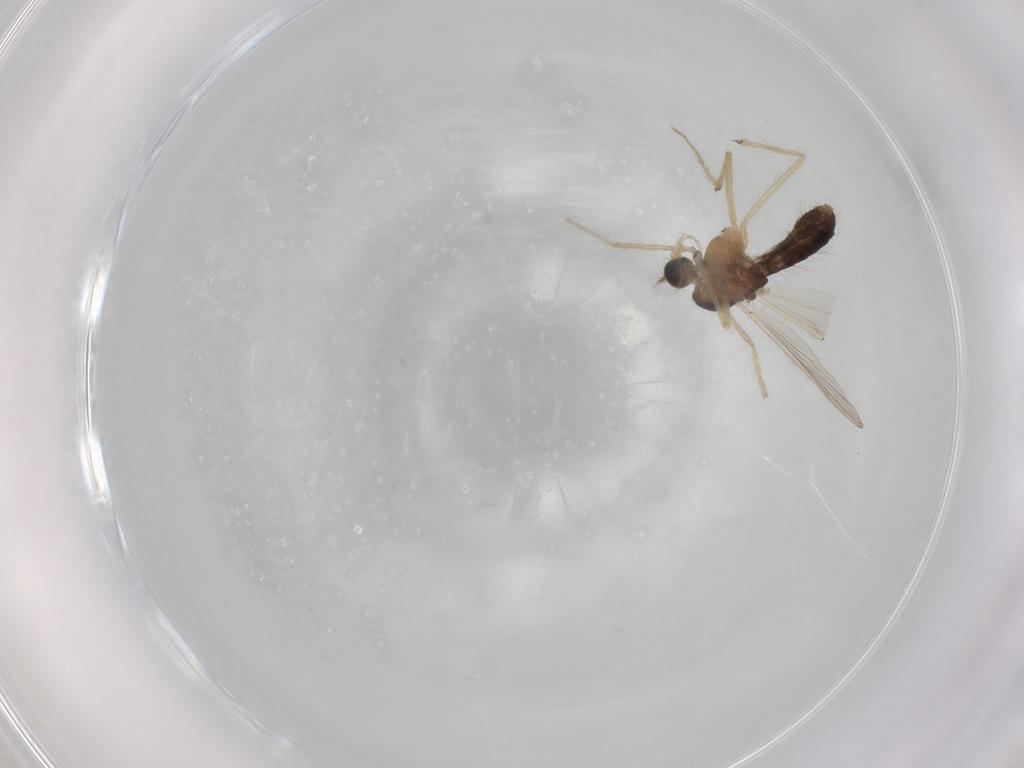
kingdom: Animalia
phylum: Arthropoda
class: Insecta
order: Diptera
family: Chironomidae
